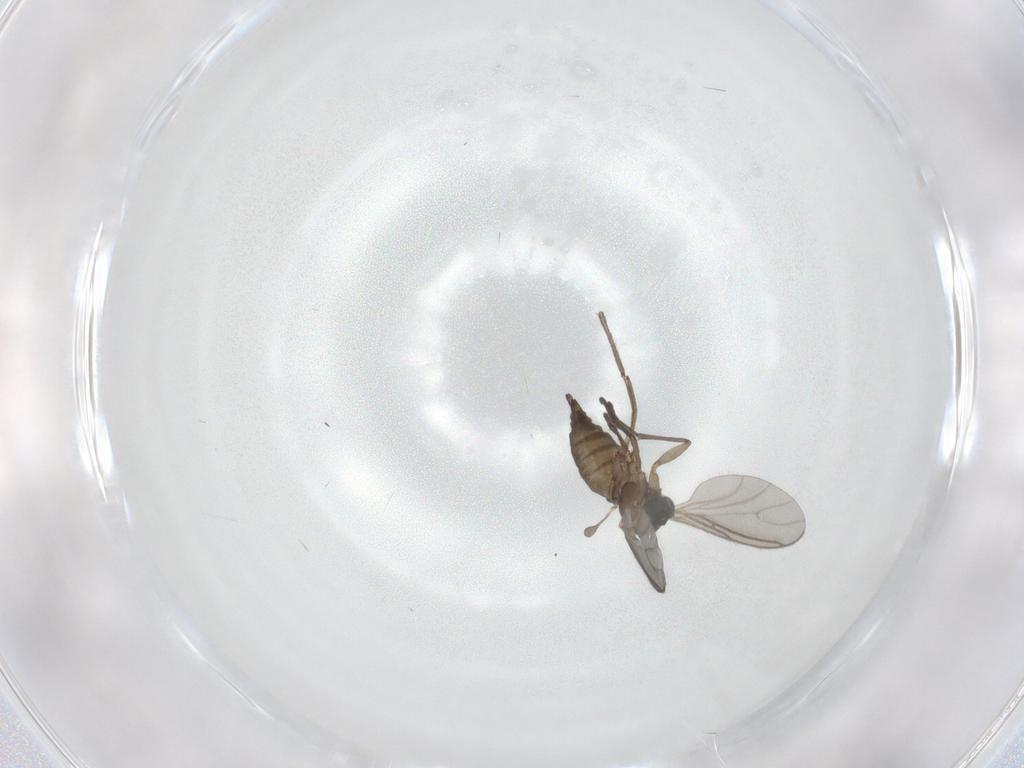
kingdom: Animalia
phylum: Arthropoda
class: Insecta
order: Diptera
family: Sciaridae
